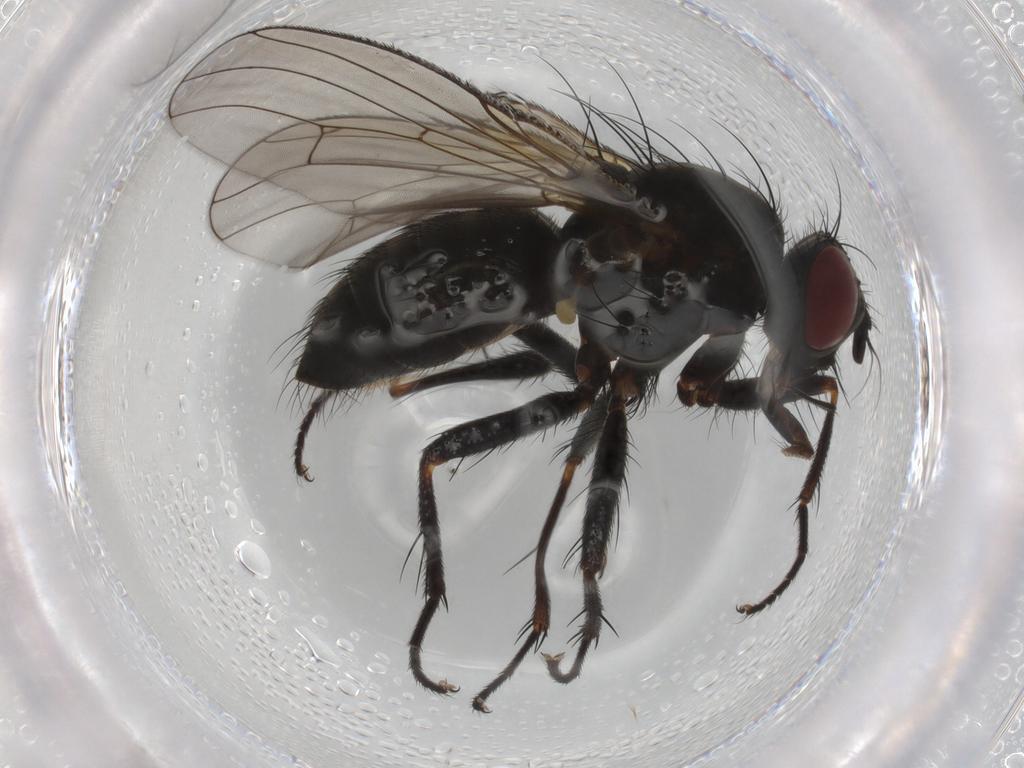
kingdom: Animalia
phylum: Arthropoda
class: Insecta
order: Diptera
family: Muscidae
